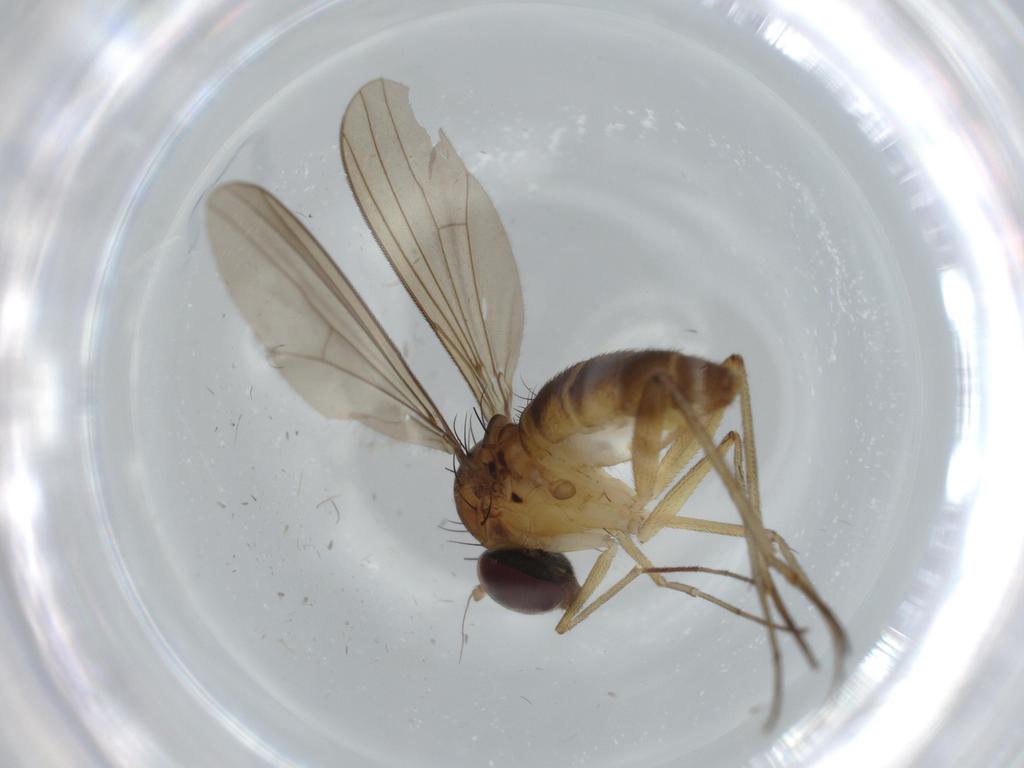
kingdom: Animalia
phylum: Arthropoda
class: Insecta
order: Diptera
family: Dolichopodidae
